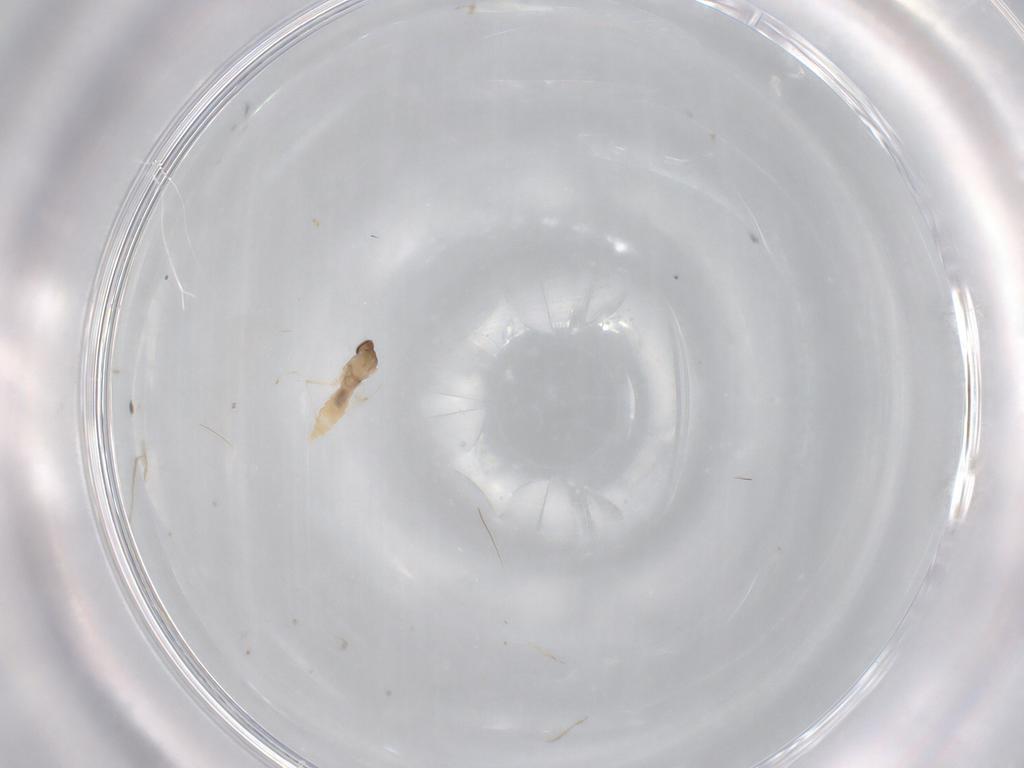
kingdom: Animalia
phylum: Arthropoda
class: Insecta
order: Diptera
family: Cecidomyiidae
